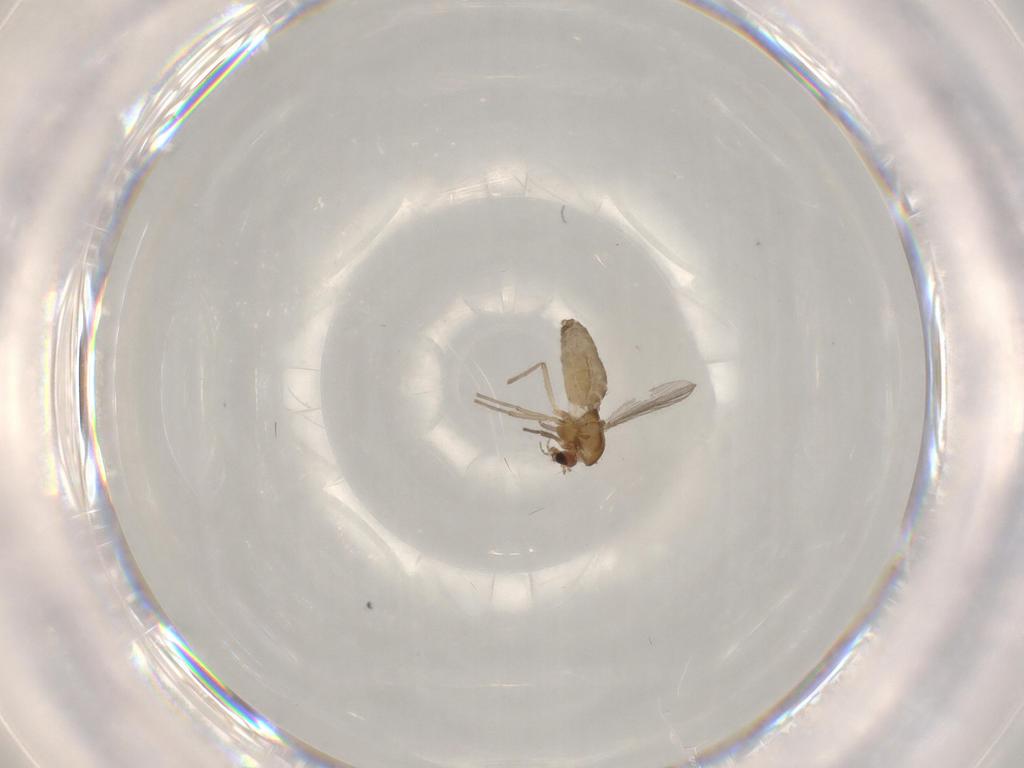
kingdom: Animalia
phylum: Arthropoda
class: Insecta
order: Diptera
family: Chironomidae
